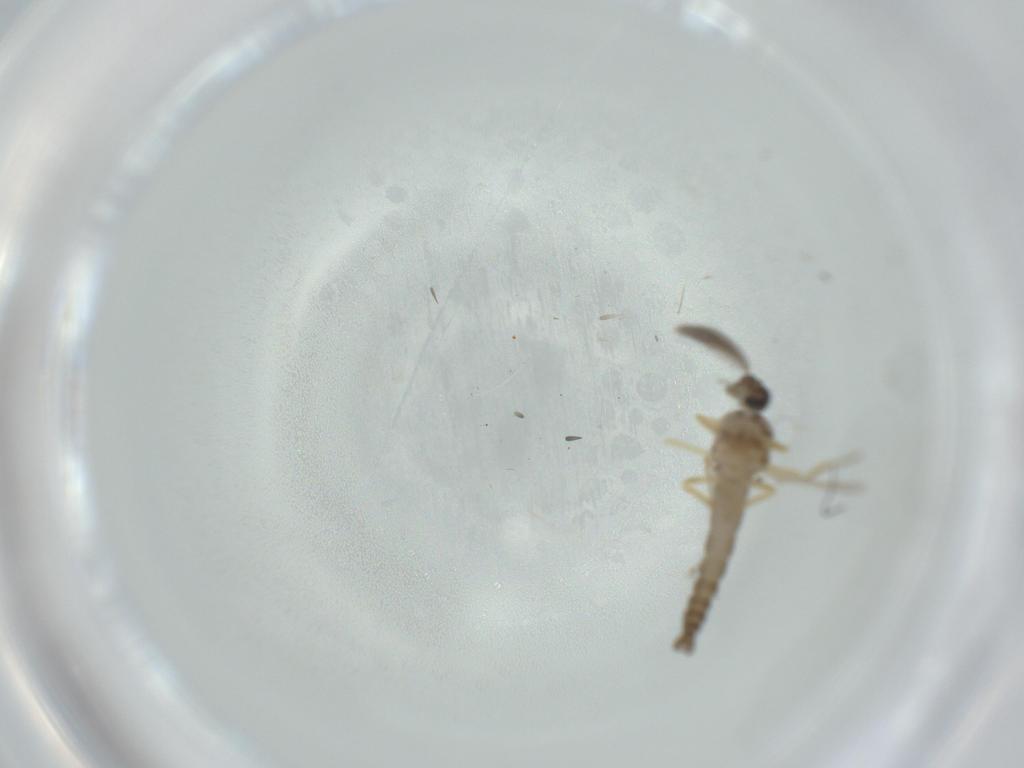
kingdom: Animalia
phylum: Arthropoda
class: Insecta
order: Diptera
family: Ceratopogonidae
